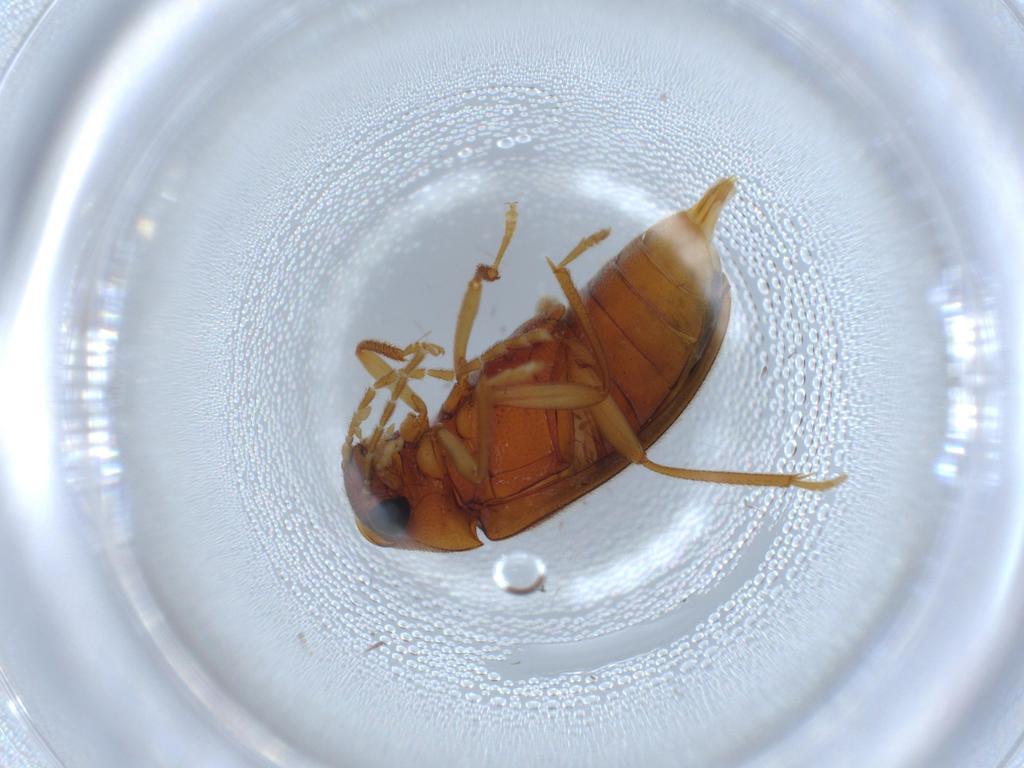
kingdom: Animalia
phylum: Arthropoda
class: Insecta
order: Coleoptera
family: Ptilodactylidae
